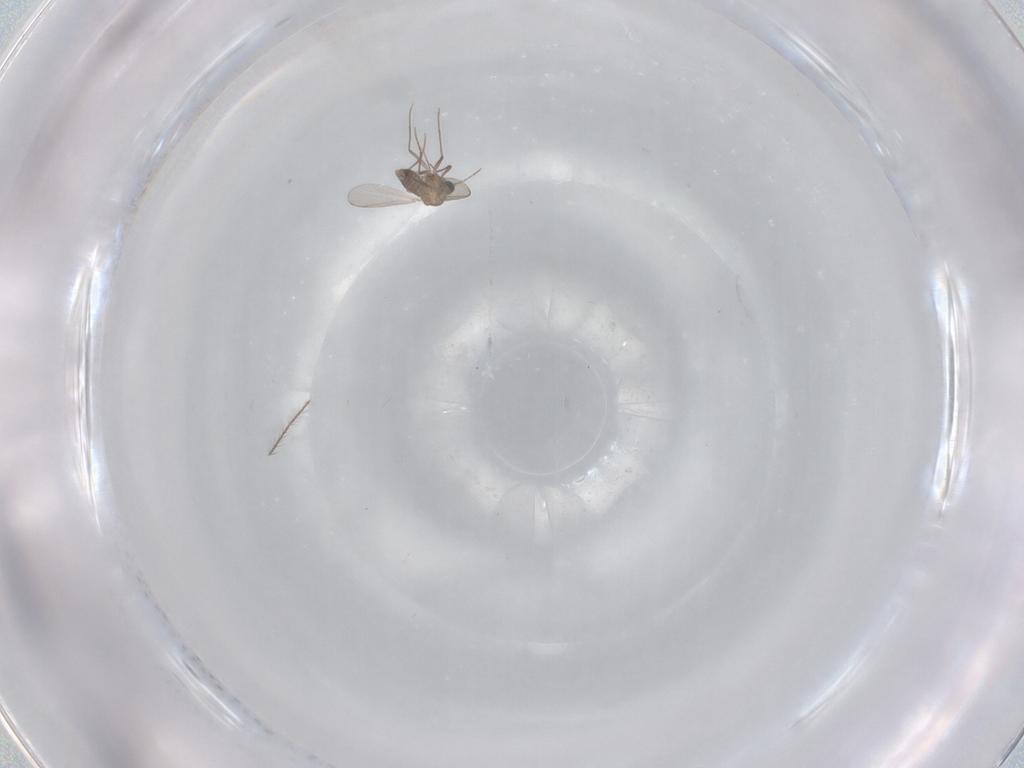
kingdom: Animalia
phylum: Arthropoda
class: Insecta
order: Diptera
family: Chironomidae
